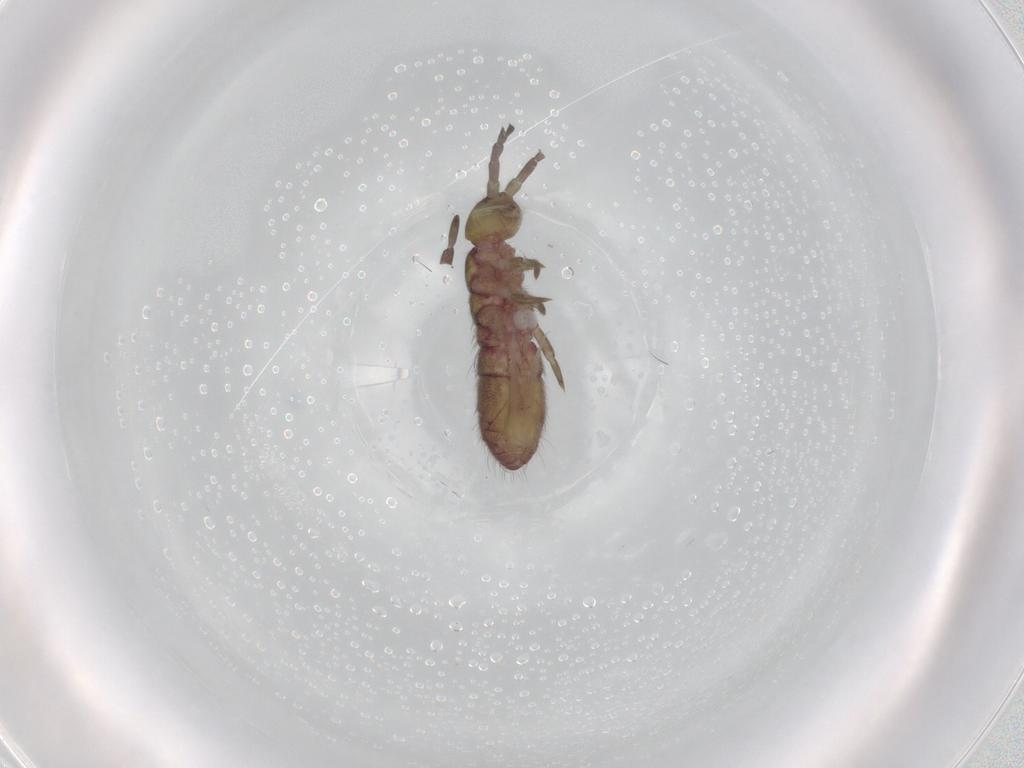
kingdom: Animalia
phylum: Arthropoda
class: Collembola
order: Entomobryomorpha
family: Isotomidae
